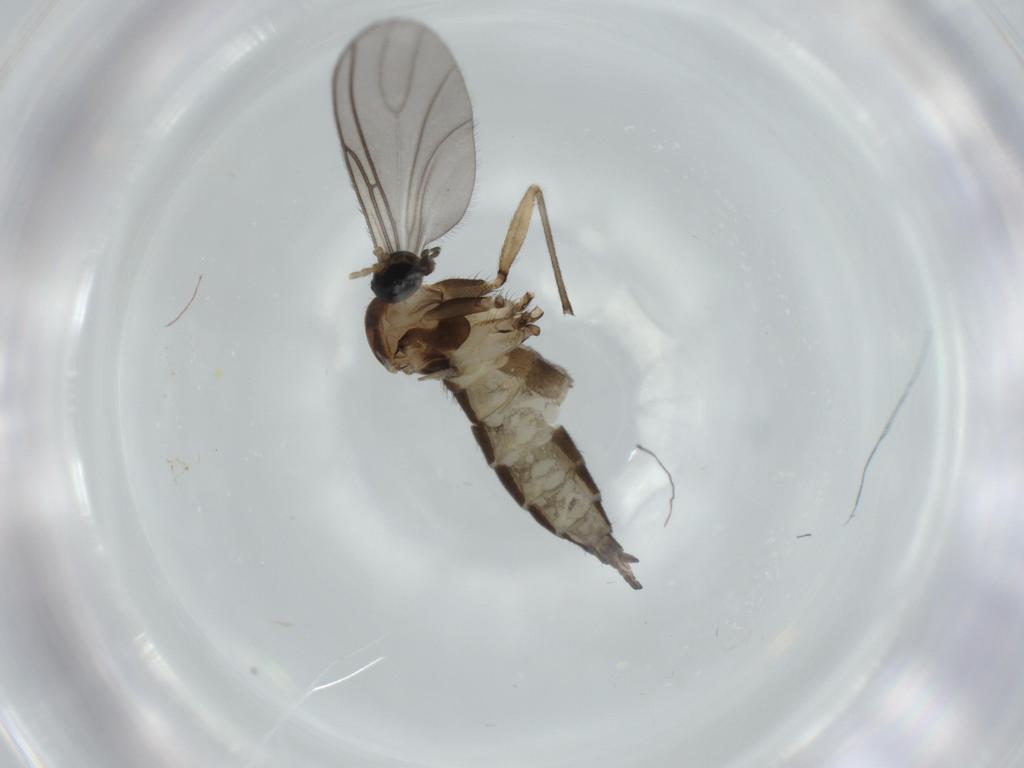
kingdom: Animalia
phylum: Arthropoda
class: Insecta
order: Diptera
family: Sciaridae
